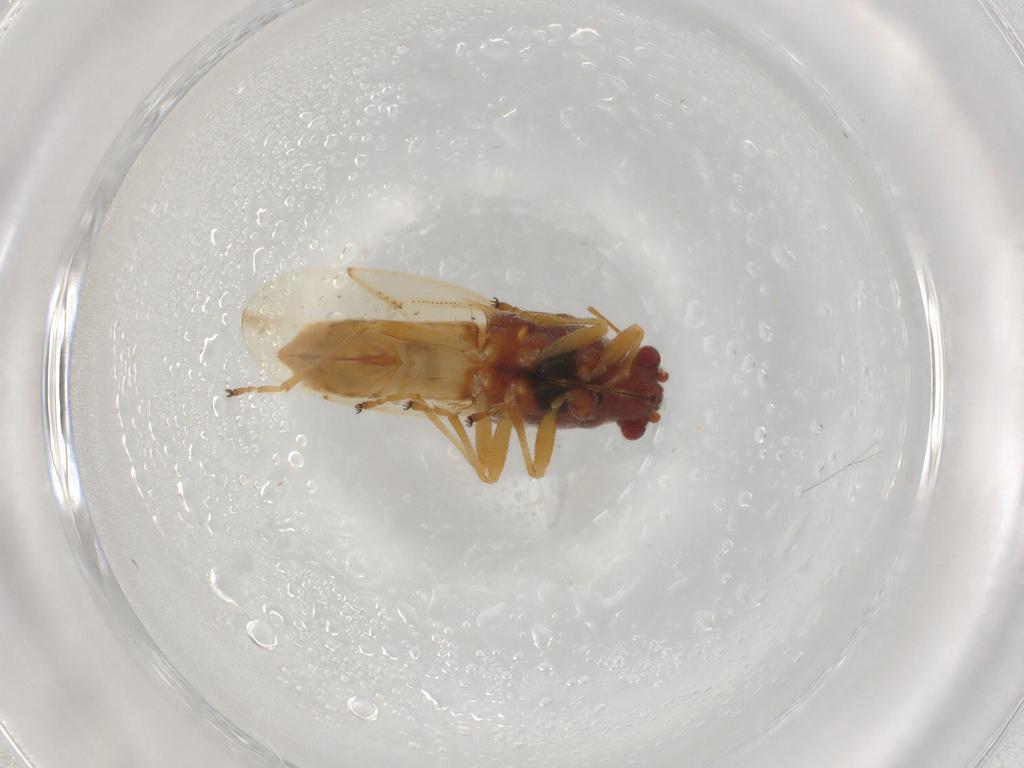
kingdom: Animalia
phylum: Arthropoda
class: Insecta
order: Hemiptera
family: Coreidae
